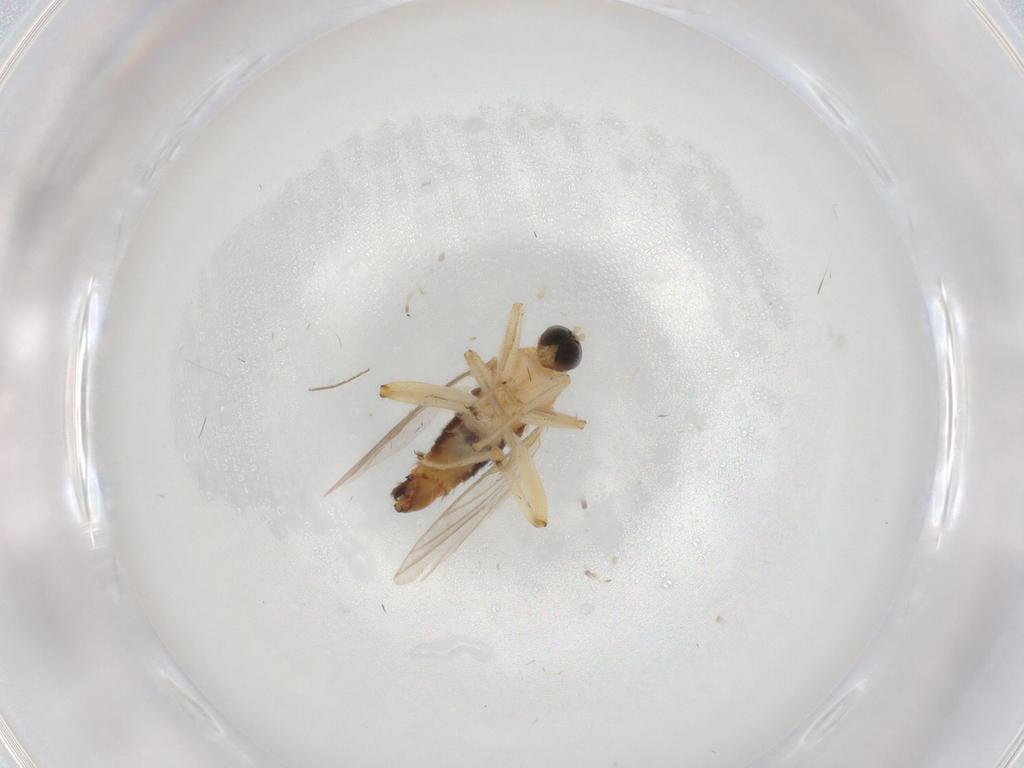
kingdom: Animalia
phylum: Arthropoda
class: Insecta
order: Diptera
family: Chironomidae
